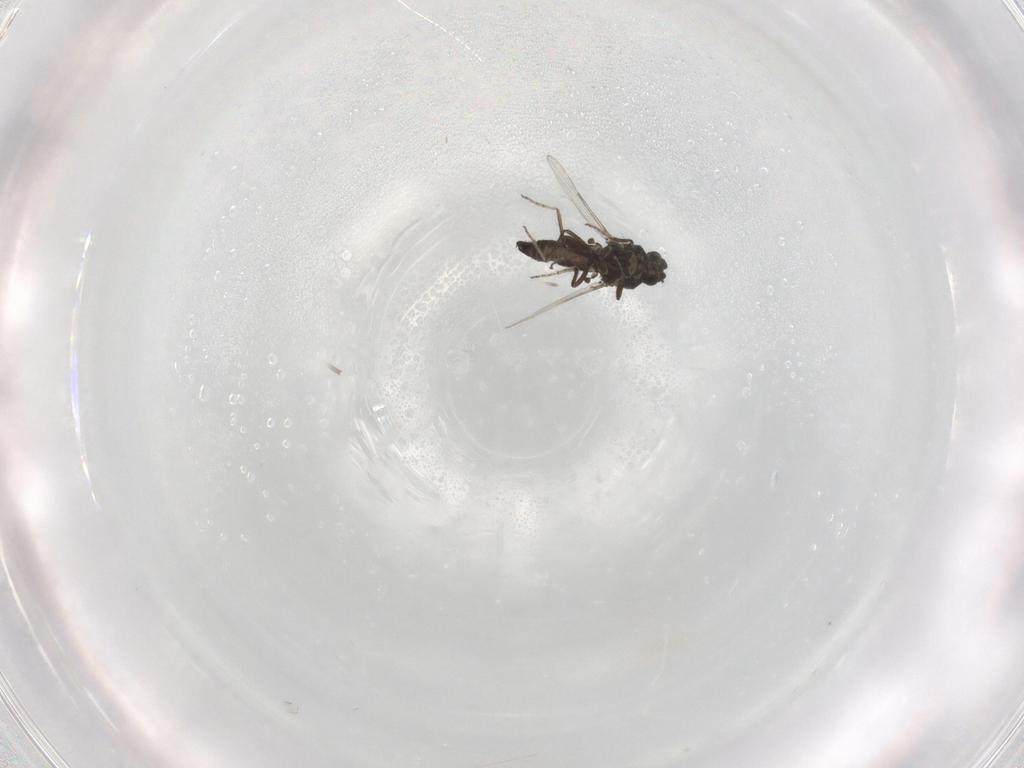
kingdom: Animalia
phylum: Arthropoda
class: Insecta
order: Diptera
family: Ceratopogonidae
